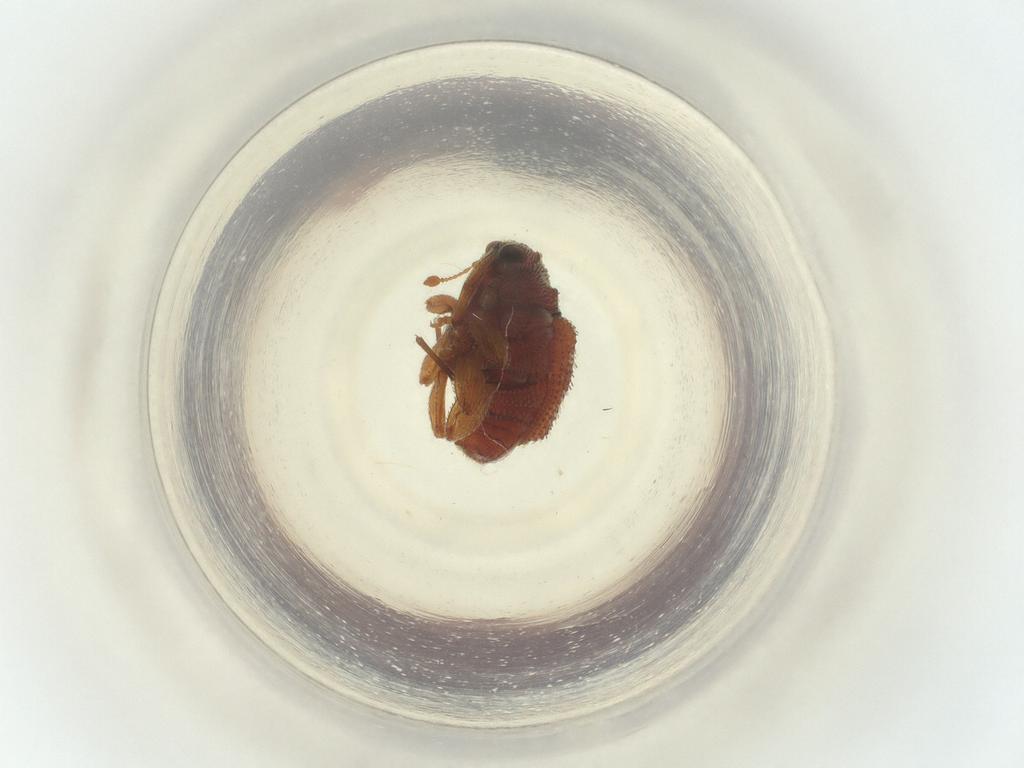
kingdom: Animalia
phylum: Arthropoda
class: Insecta
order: Diptera
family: Sciaridae
